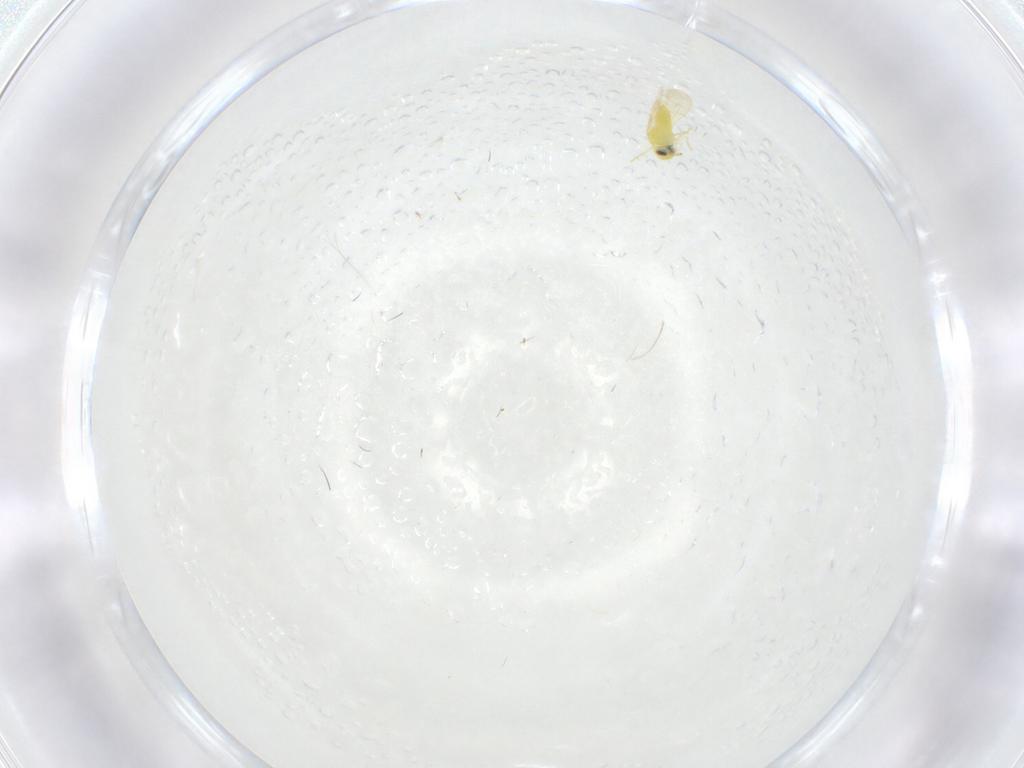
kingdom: Animalia
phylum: Arthropoda
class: Insecta
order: Hemiptera
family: Aleyrodidae
